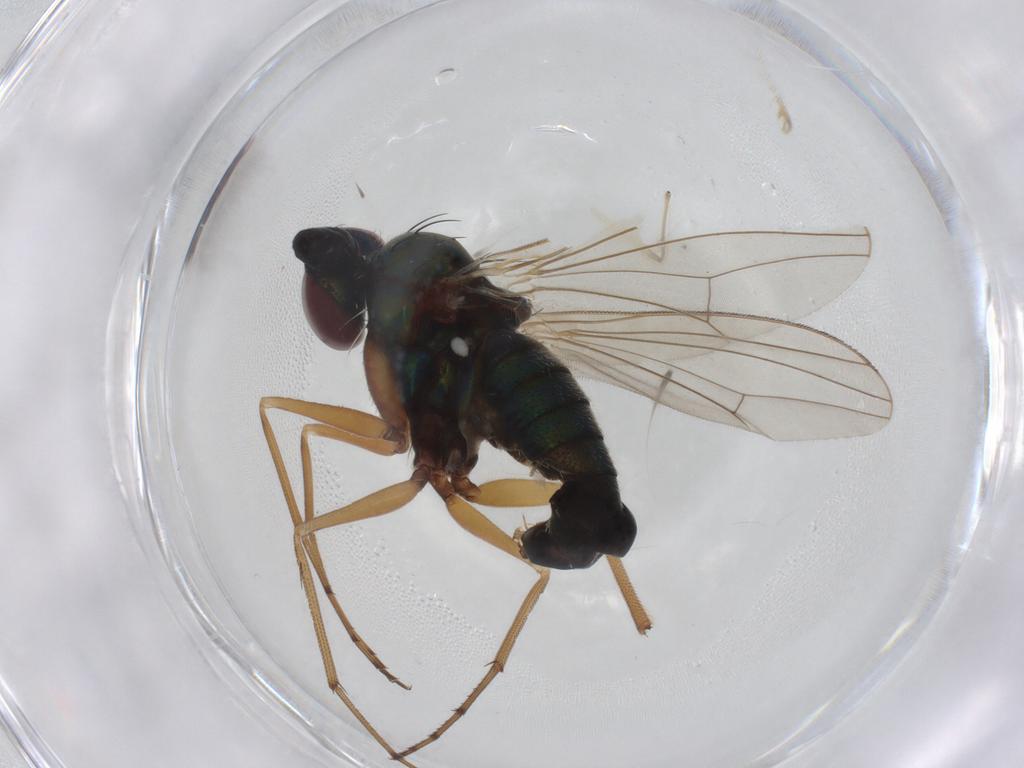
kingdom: Animalia
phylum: Arthropoda
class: Insecta
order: Diptera
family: Chironomidae
